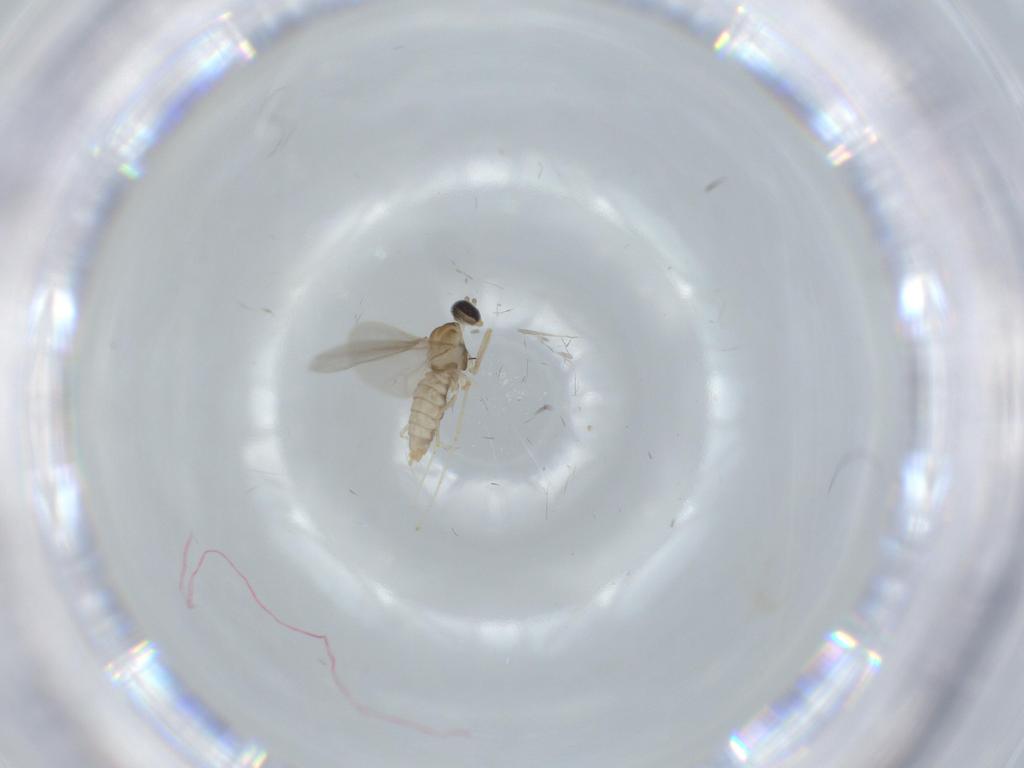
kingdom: Animalia
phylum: Arthropoda
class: Insecta
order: Diptera
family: Cecidomyiidae
